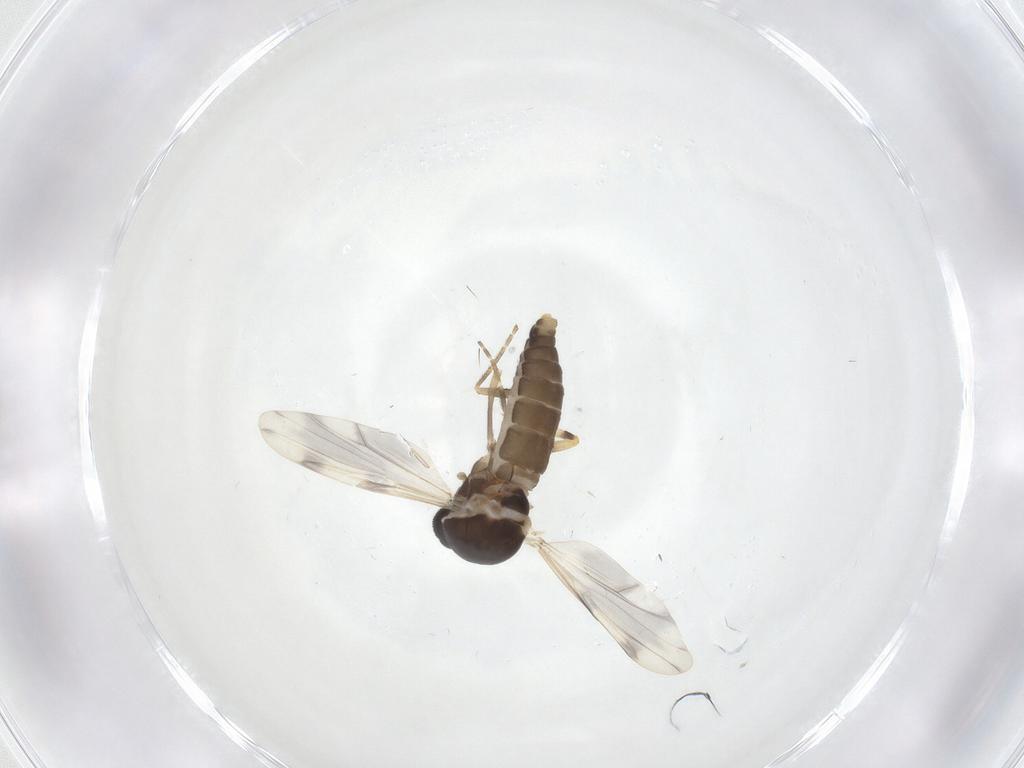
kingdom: Animalia
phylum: Arthropoda
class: Insecta
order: Diptera
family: Ceratopogonidae
